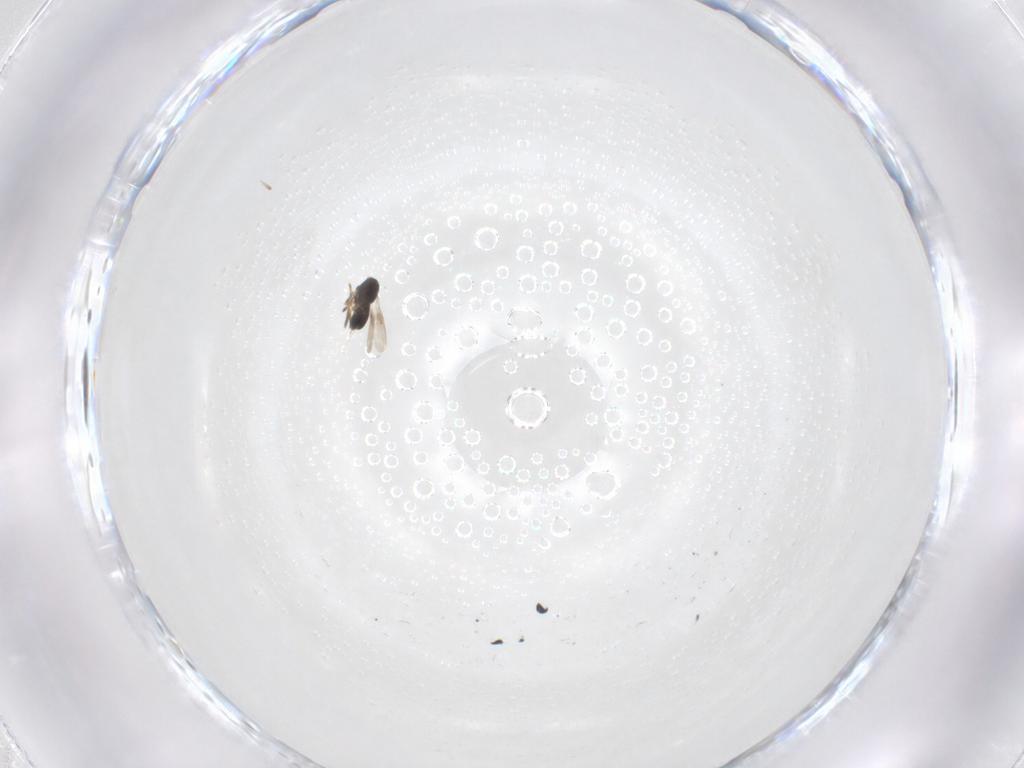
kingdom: Animalia
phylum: Arthropoda
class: Insecta
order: Hymenoptera
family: Scelionidae
